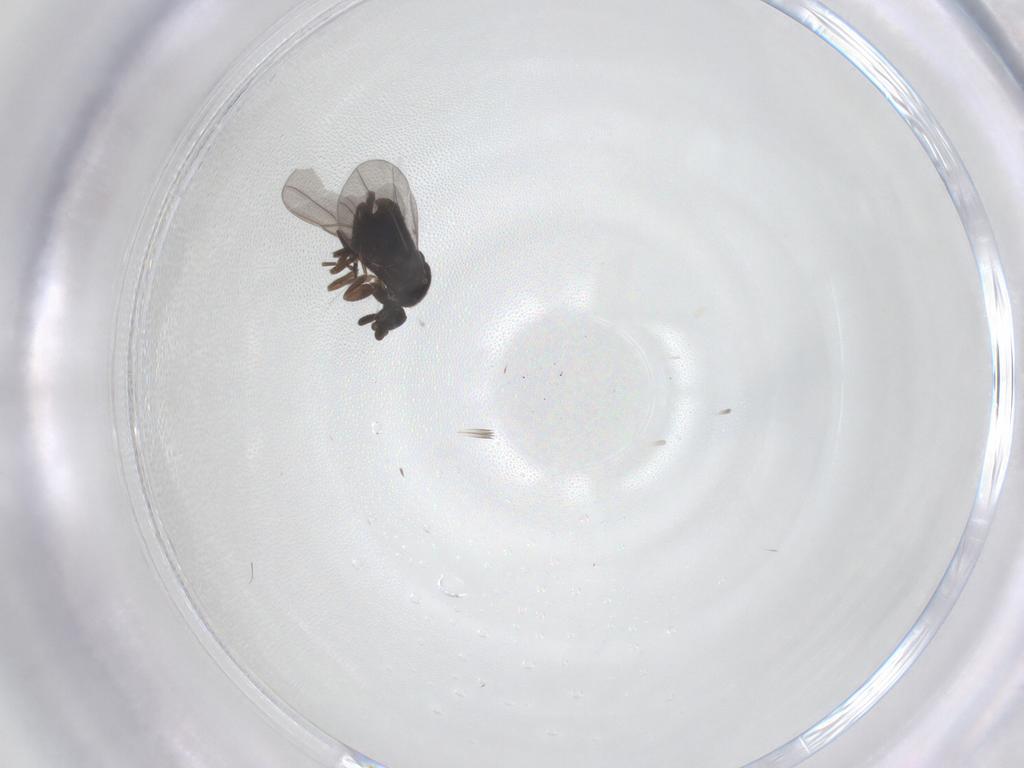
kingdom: Animalia
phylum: Arthropoda
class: Insecta
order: Diptera
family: Phoridae
